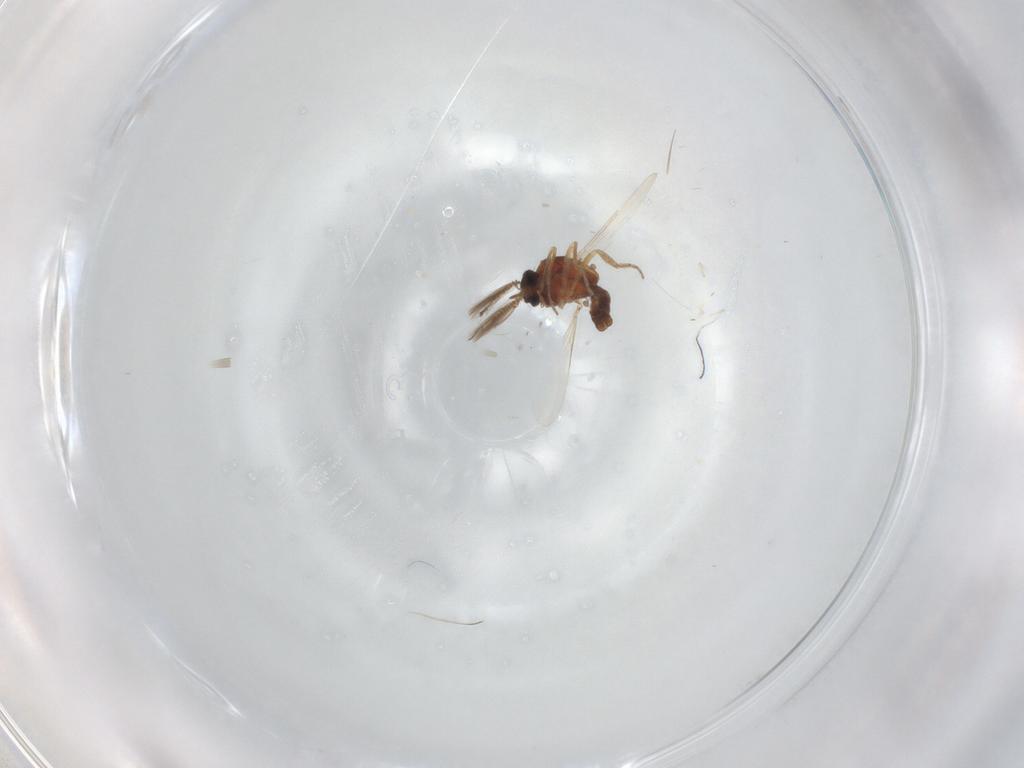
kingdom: Animalia
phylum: Arthropoda
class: Insecta
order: Diptera
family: Ceratopogonidae
